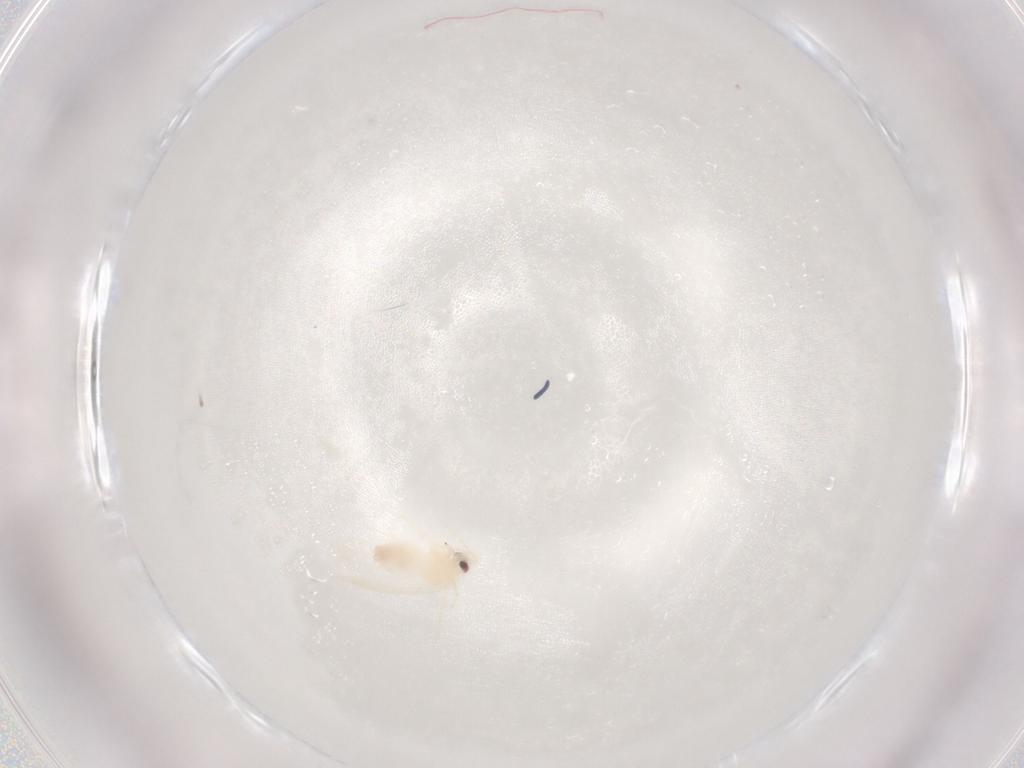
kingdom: Animalia
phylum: Arthropoda
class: Insecta
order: Hemiptera
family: Aleyrodidae
